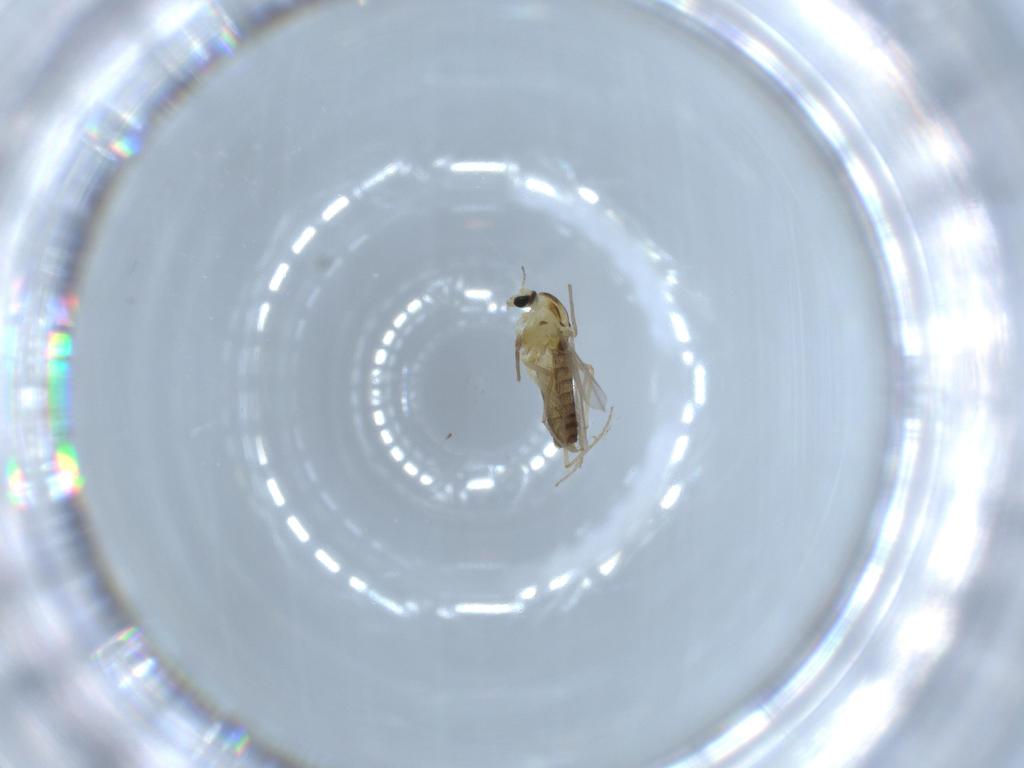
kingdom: Animalia
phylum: Arthropoda
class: Insecta
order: Diptera
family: Chironomidae
